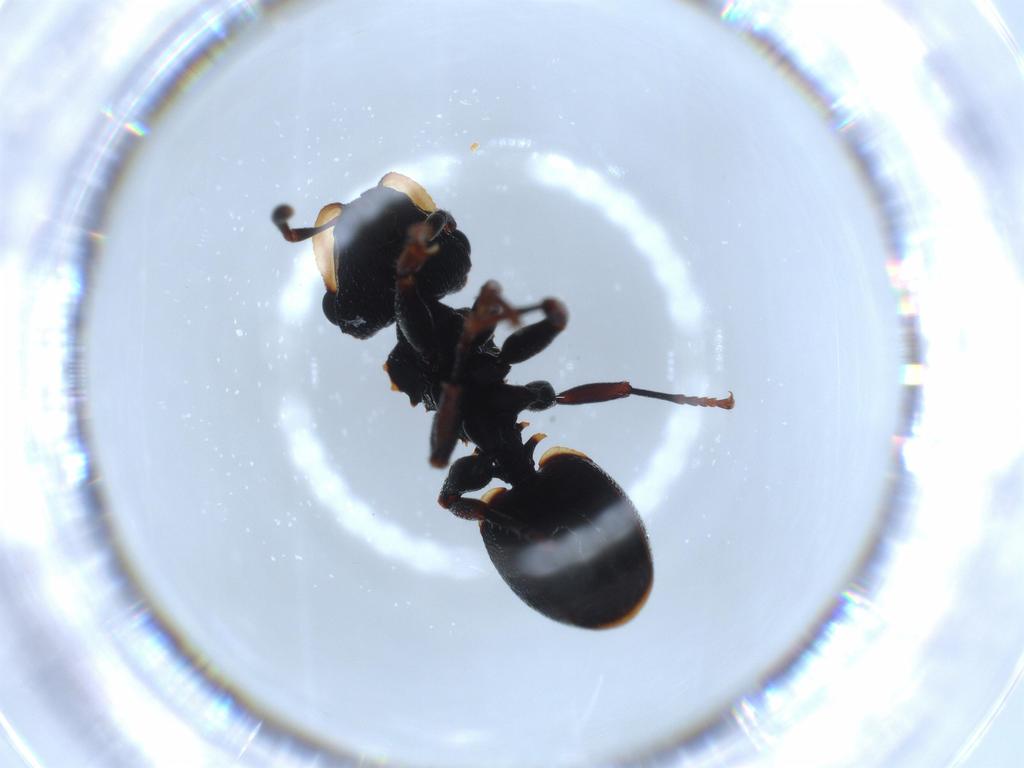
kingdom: Animalia
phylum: Arthropoda
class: Insecta
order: Hymenoptera
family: Formicidae
